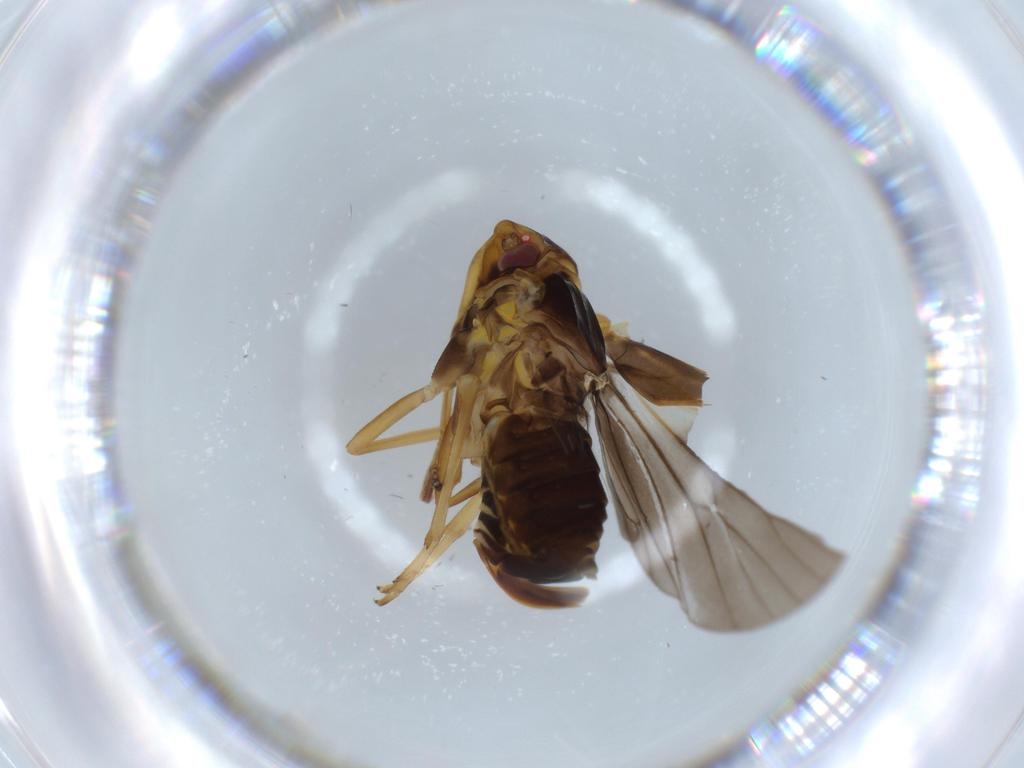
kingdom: Animalia
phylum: Arthropoda
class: Insecta
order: Hemiptera
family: Cixiidae
